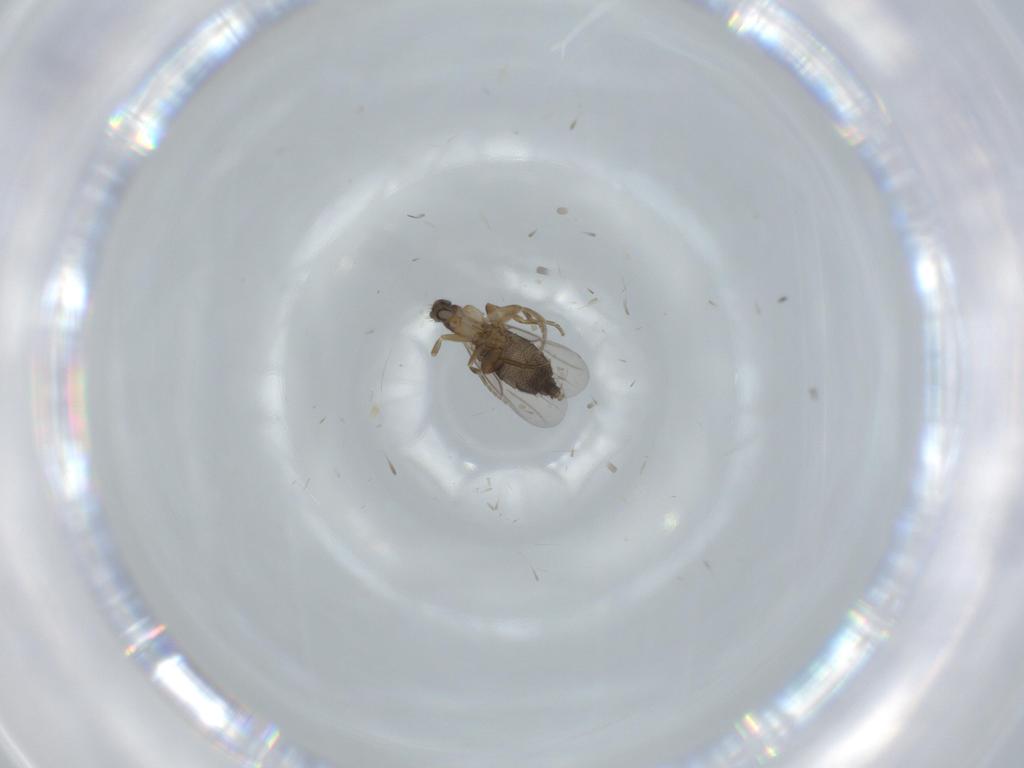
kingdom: Animalia
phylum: Arthropoda
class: Insecta
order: Diptera
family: Phoridae
